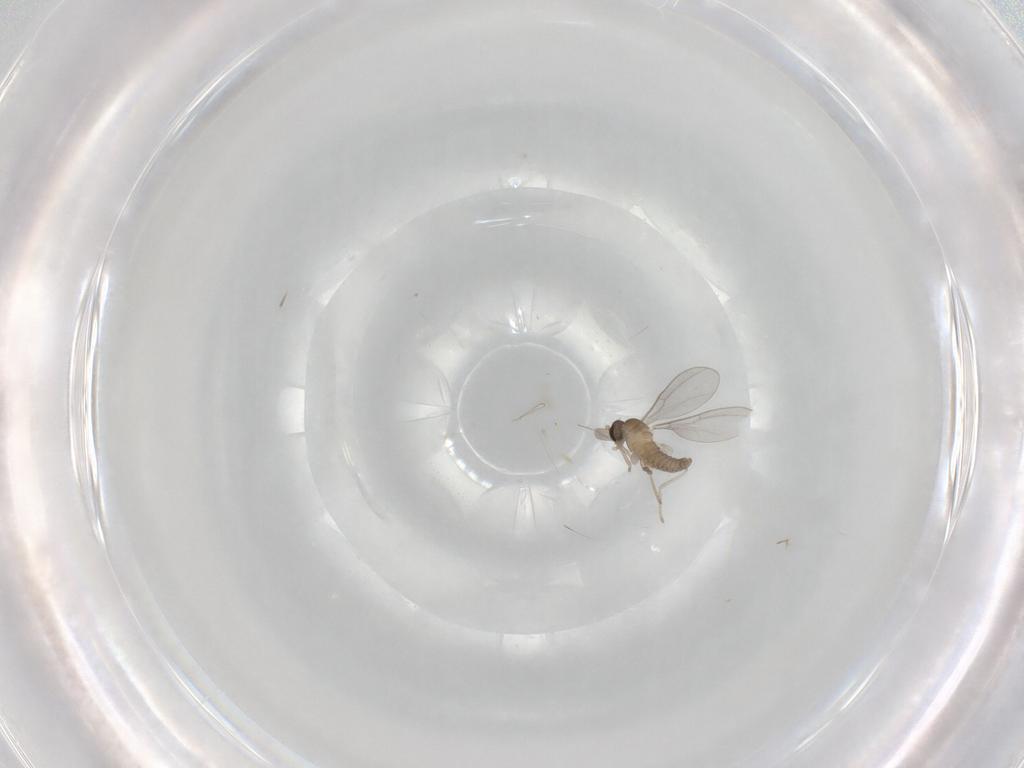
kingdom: Animalia
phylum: Arthropoda
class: Insecta
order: Diptera
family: Cecidomyiidae
